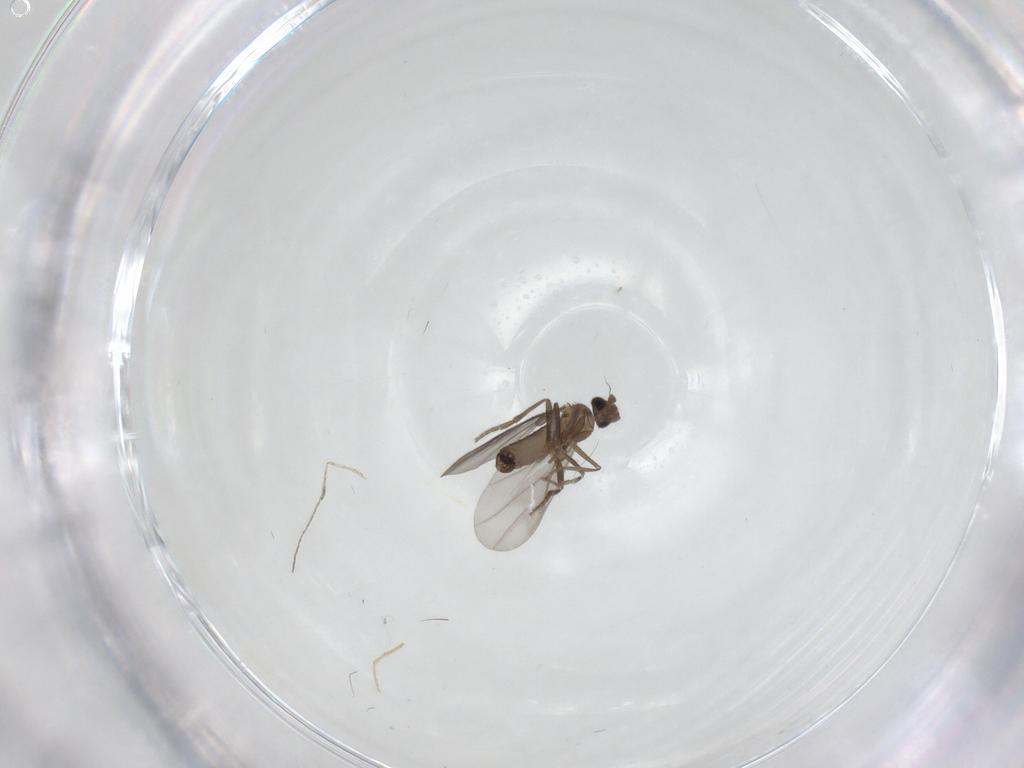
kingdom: Animalia
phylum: Arthropoda
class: Insecta
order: Diptera
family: Cecidomyiidae
